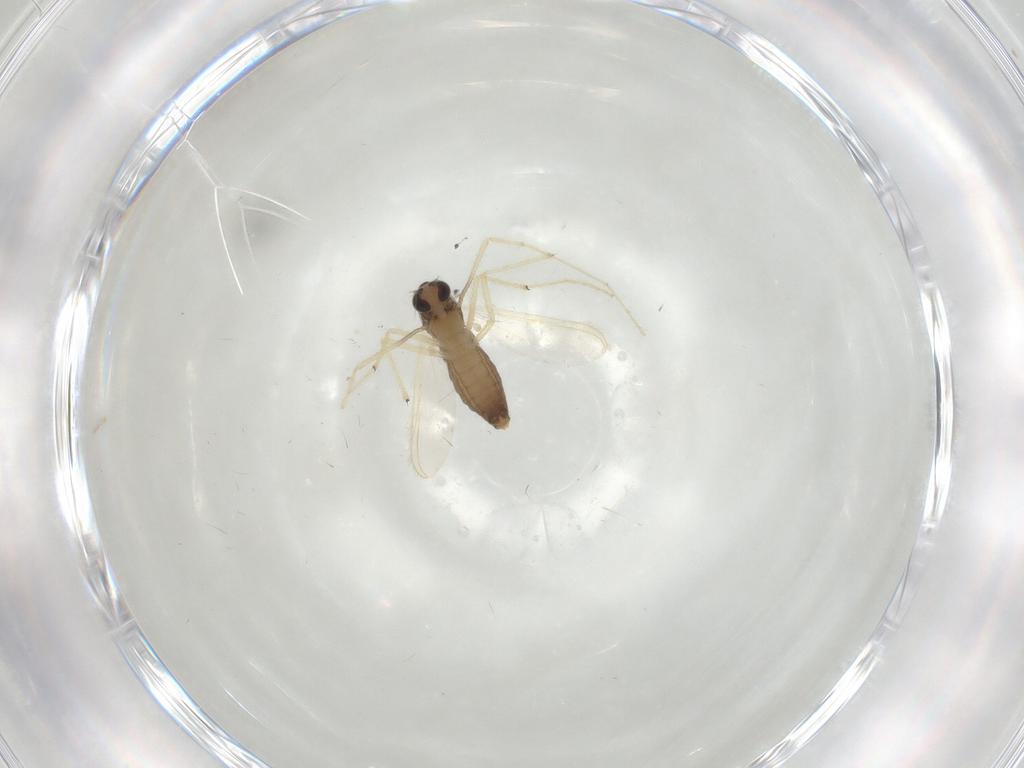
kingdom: Animalia
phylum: Arthropoda
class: Insecta
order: Diptera
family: Chironomidae
